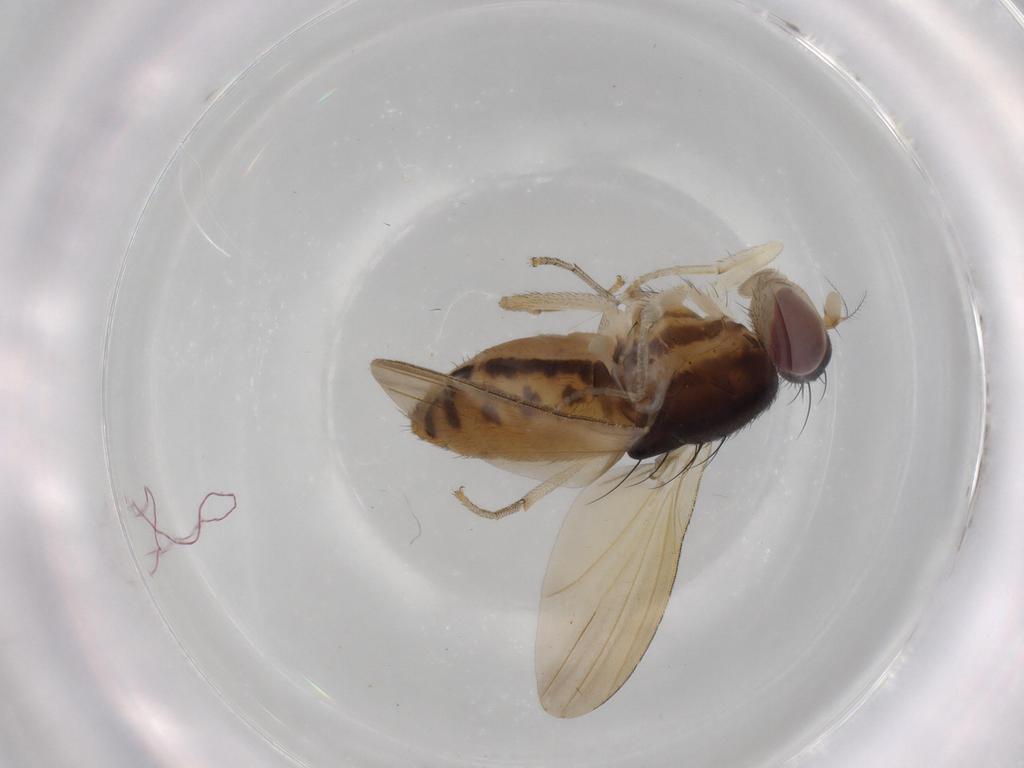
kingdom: Animalia
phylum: Arthropoda
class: Insecta
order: Diptera
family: Mycetophilidae
